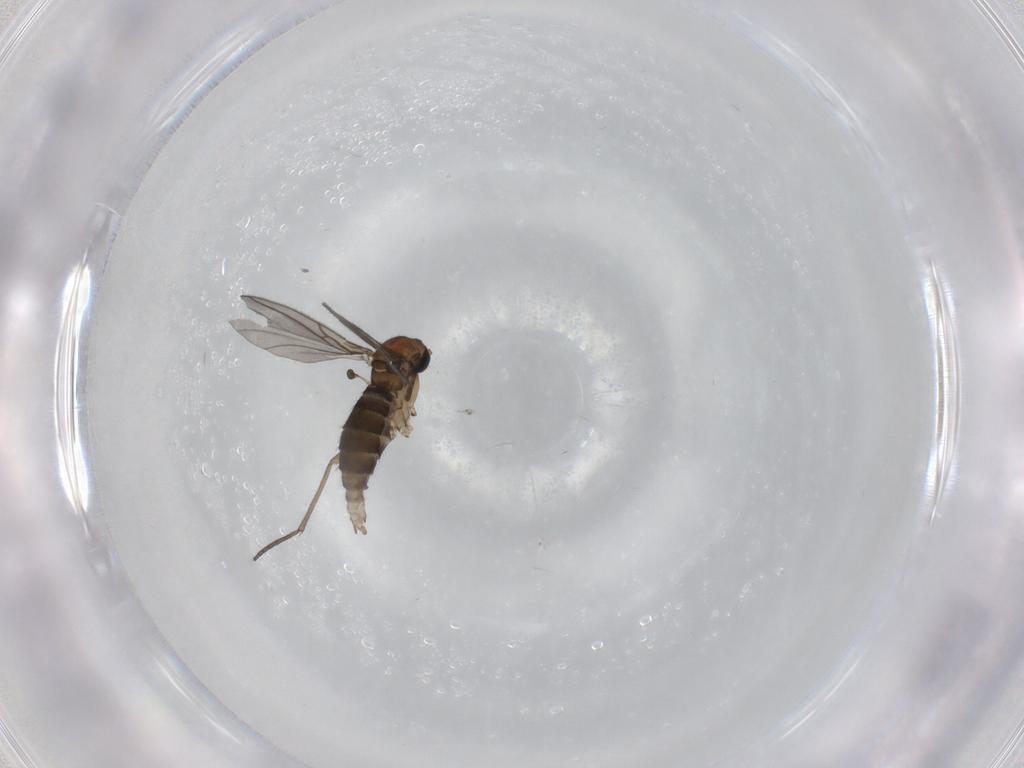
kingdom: Animalia
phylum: Arthropoda
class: Insecta
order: Diptera
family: Sciaridae
